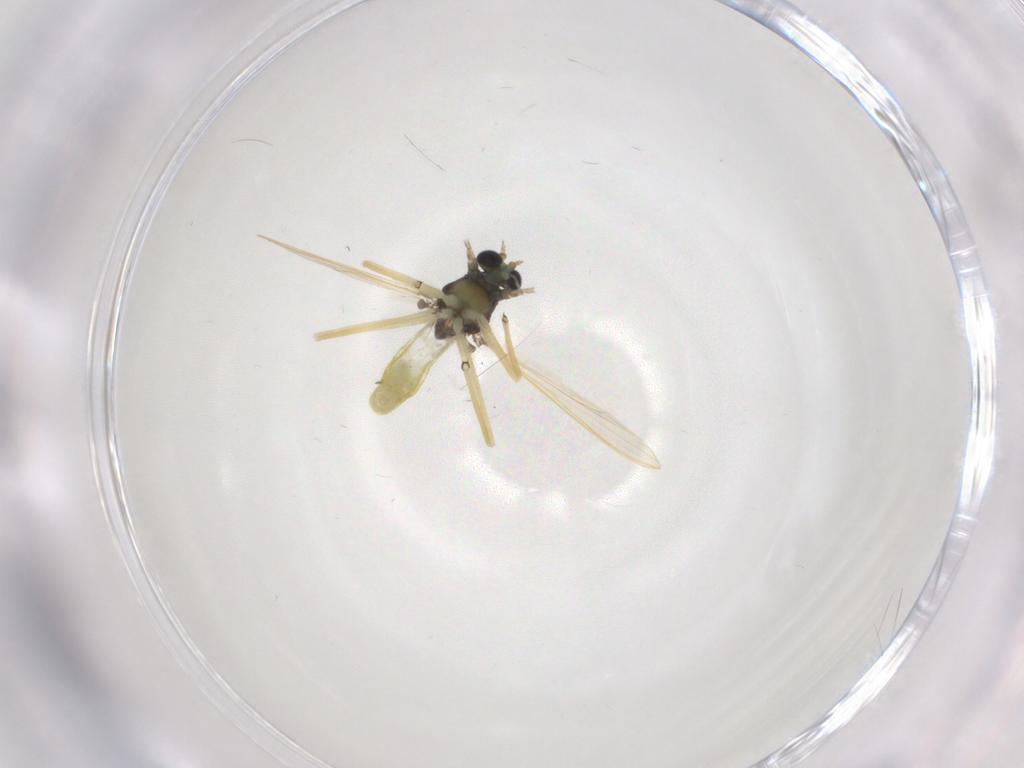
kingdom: Animalia
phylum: Arthropoda
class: Insecta
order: Diptera
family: Chironomidae
